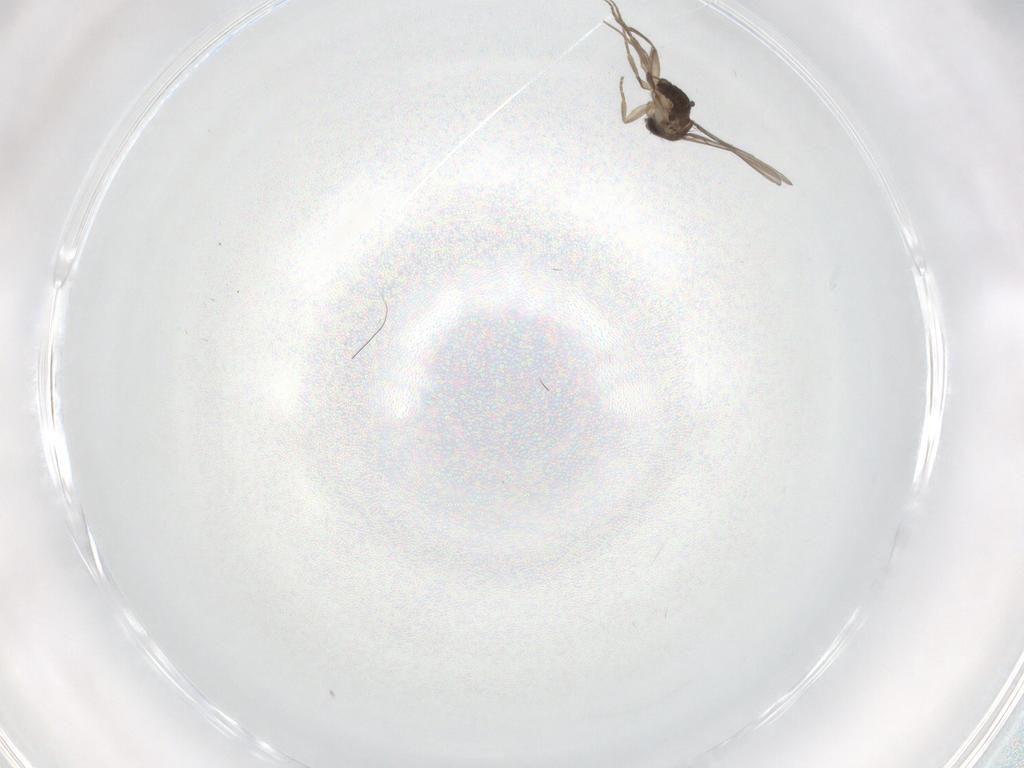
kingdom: Animalia
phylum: Arthropoda
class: Insecta
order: Diptera
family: Phoridae
